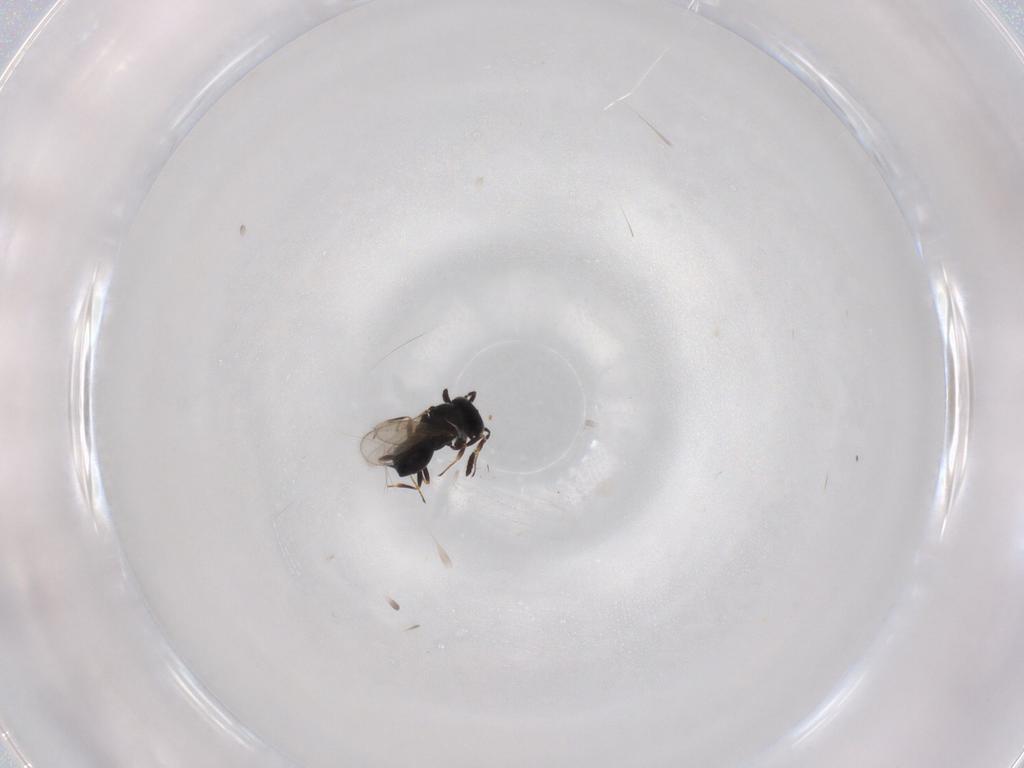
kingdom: Animalia
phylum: Arthropoda
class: Insecta
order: Hymenoptera
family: Scelionidae
